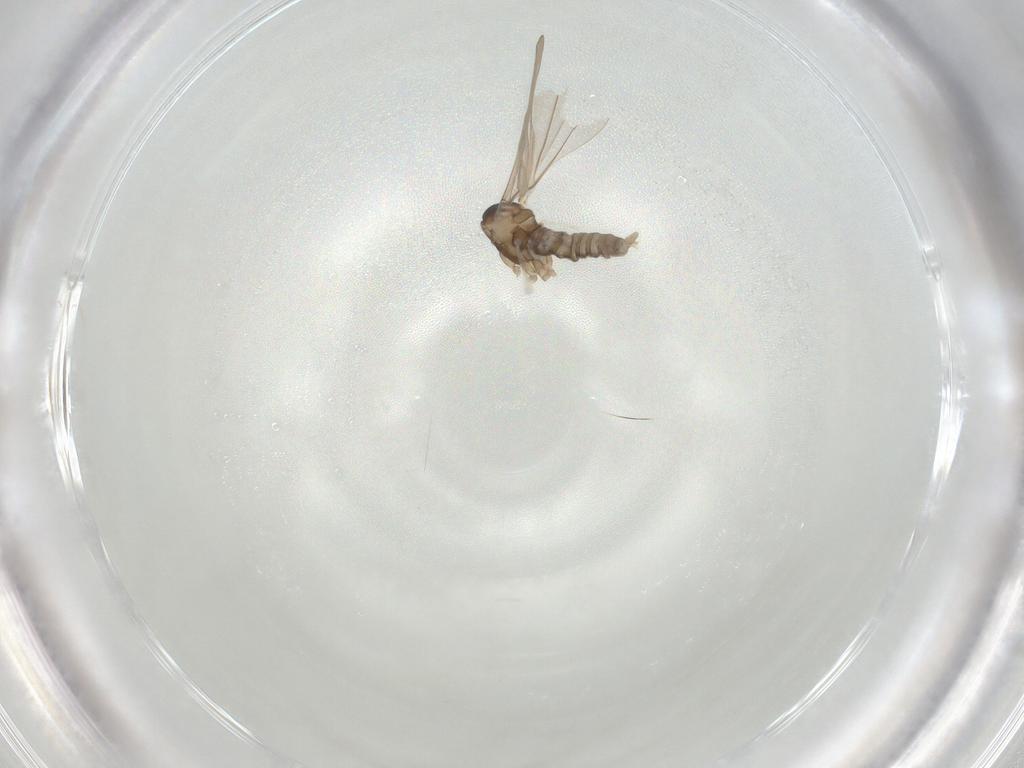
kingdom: Animalia
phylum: Arthropoda
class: Insecta
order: Diptera
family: Cecidomyiidae
